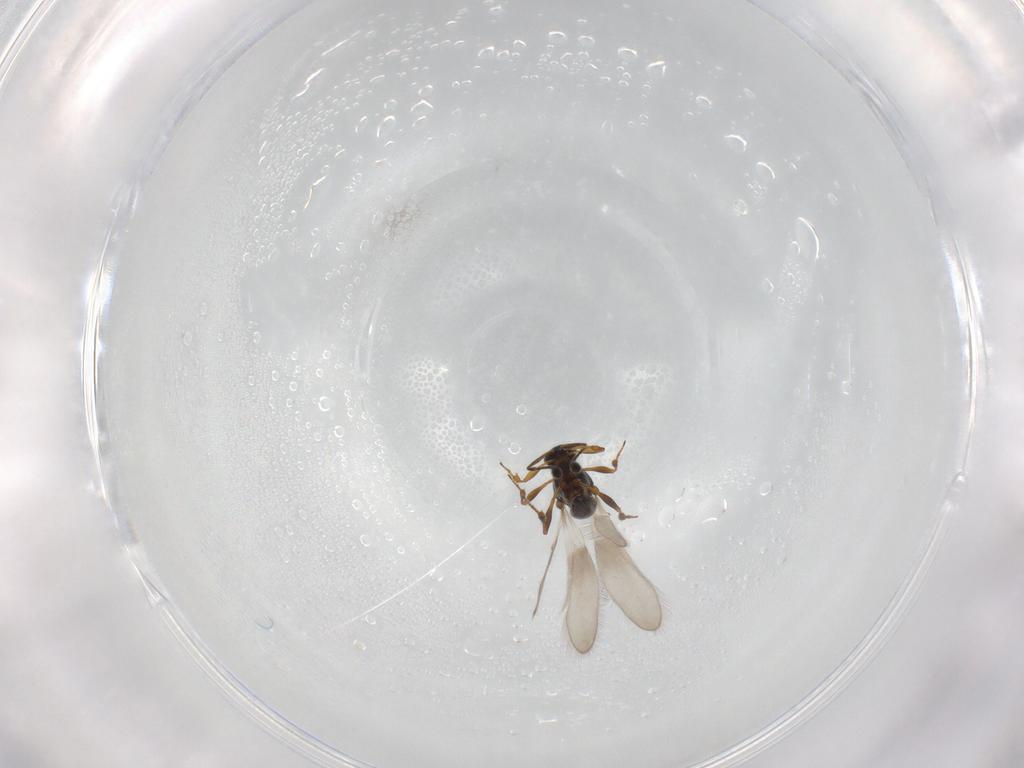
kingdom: Animalia
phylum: Arthropoda
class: Insecta
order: Hymenoptera
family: Platygastridae
